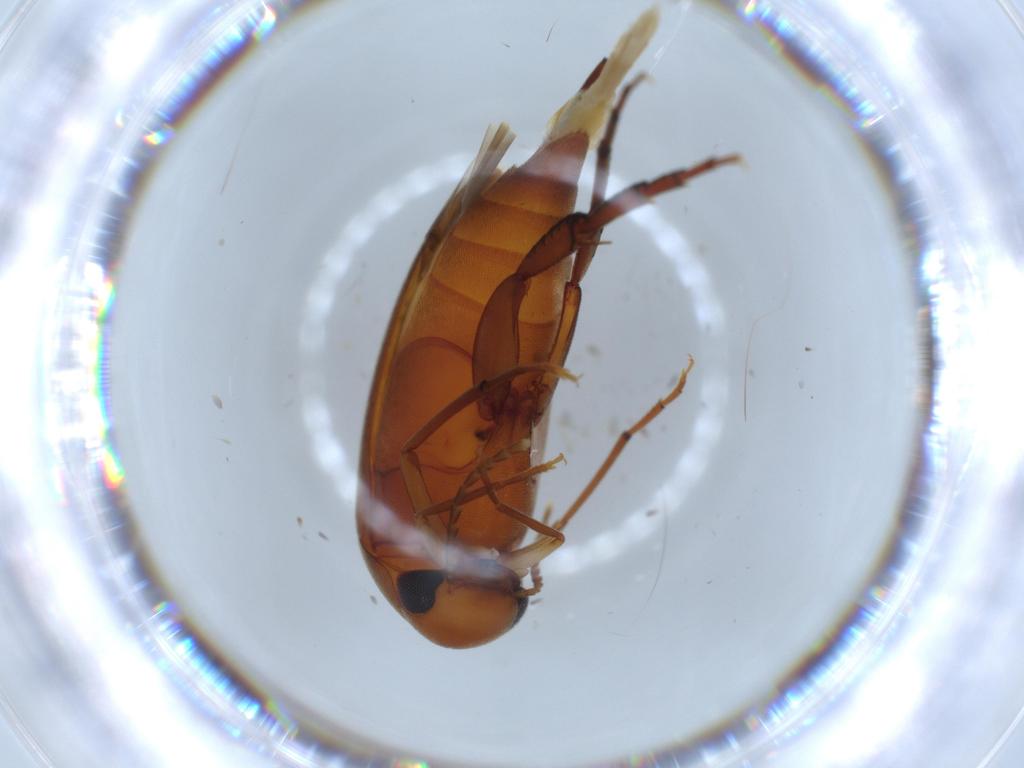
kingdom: Animalia
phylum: Arthropoda
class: Insecta
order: Coleoptera
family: Mordellidae
